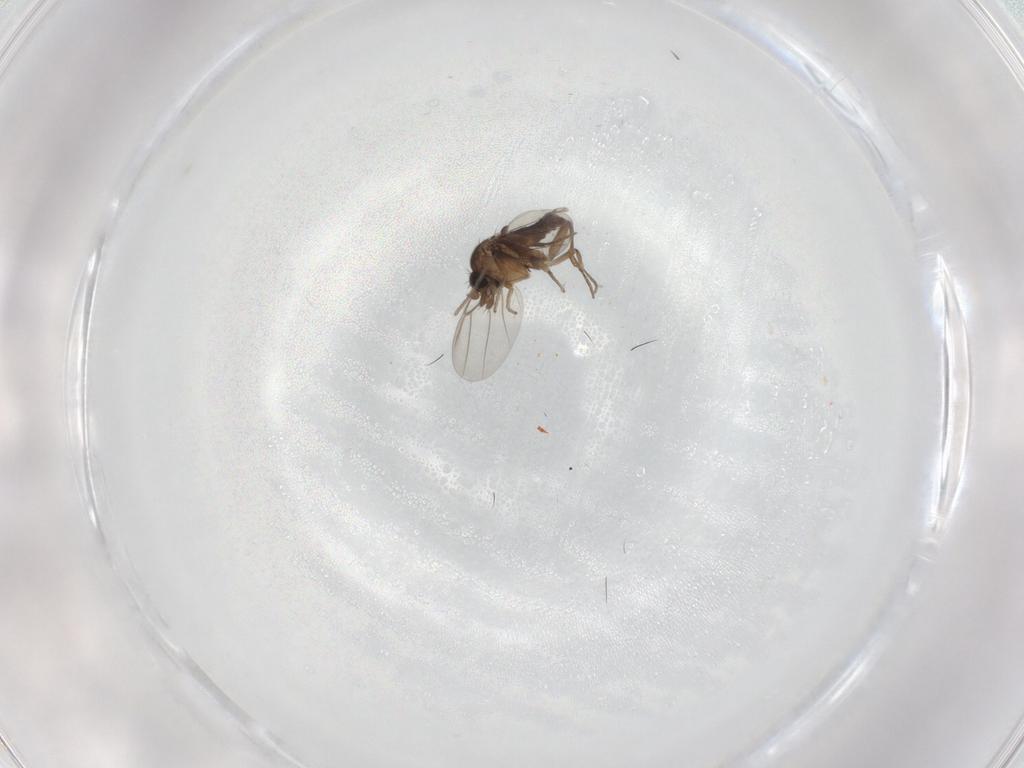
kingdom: Animalia
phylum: Arthropoda
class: Insecta
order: Diptera
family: Psychodidae
